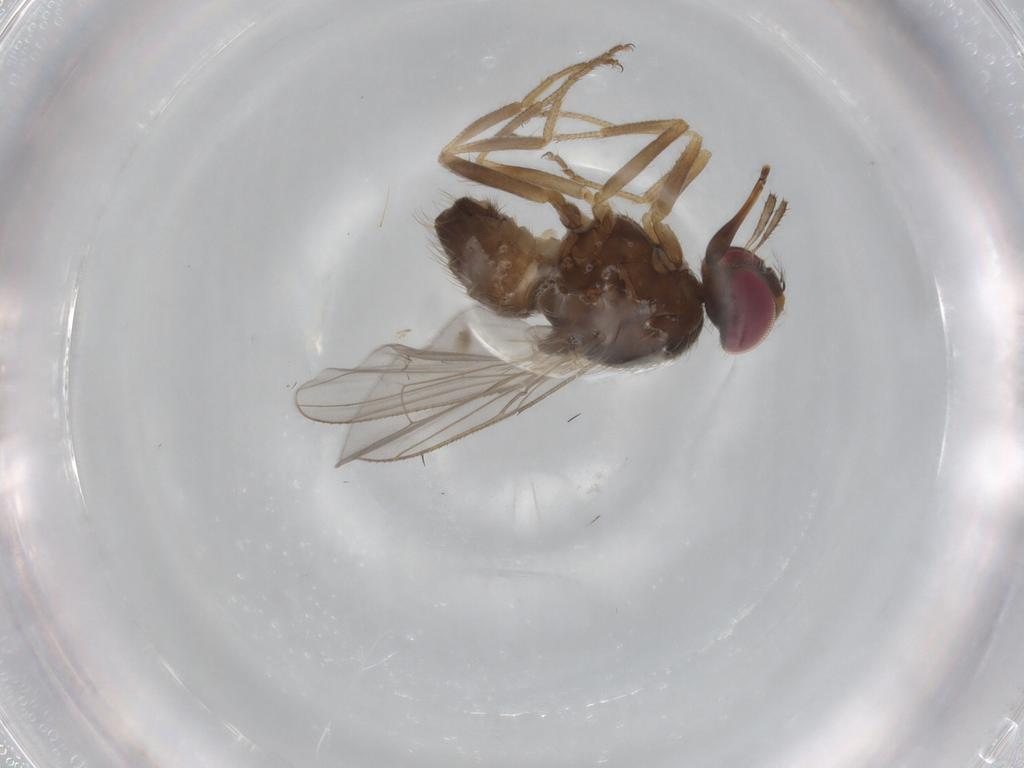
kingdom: Animalia
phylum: Arthropoda
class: Insecta
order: Diptera
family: Muscidae
